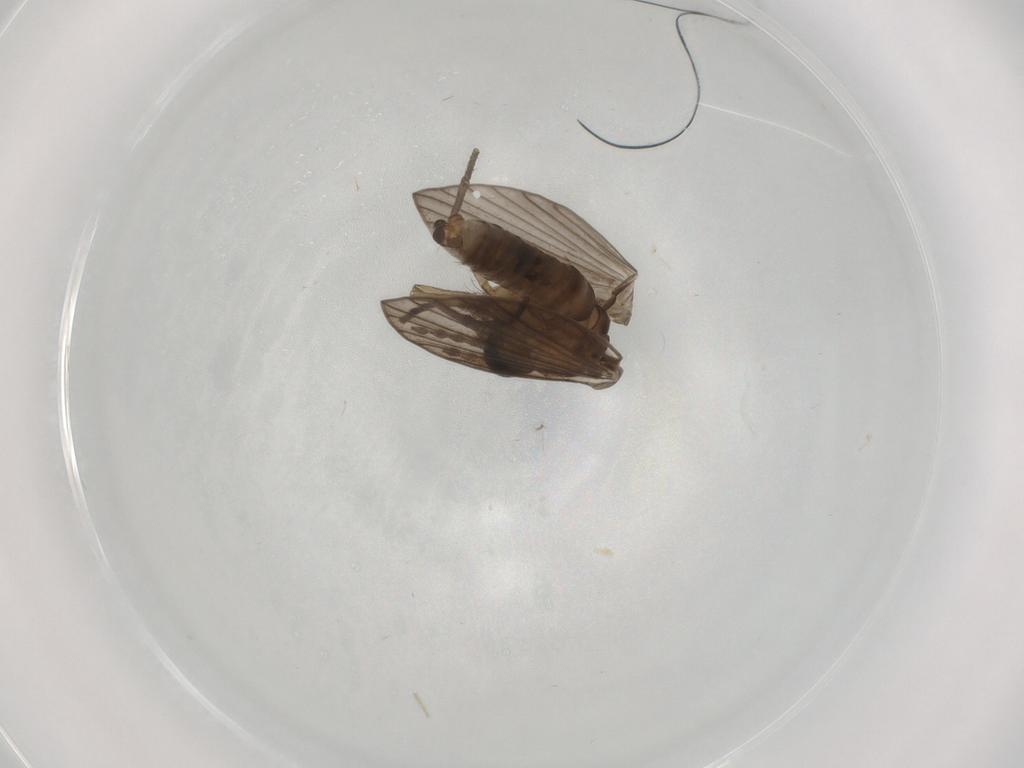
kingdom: Animalia
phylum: Arthropoda
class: Insecta
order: Diptera
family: Psychodidae
